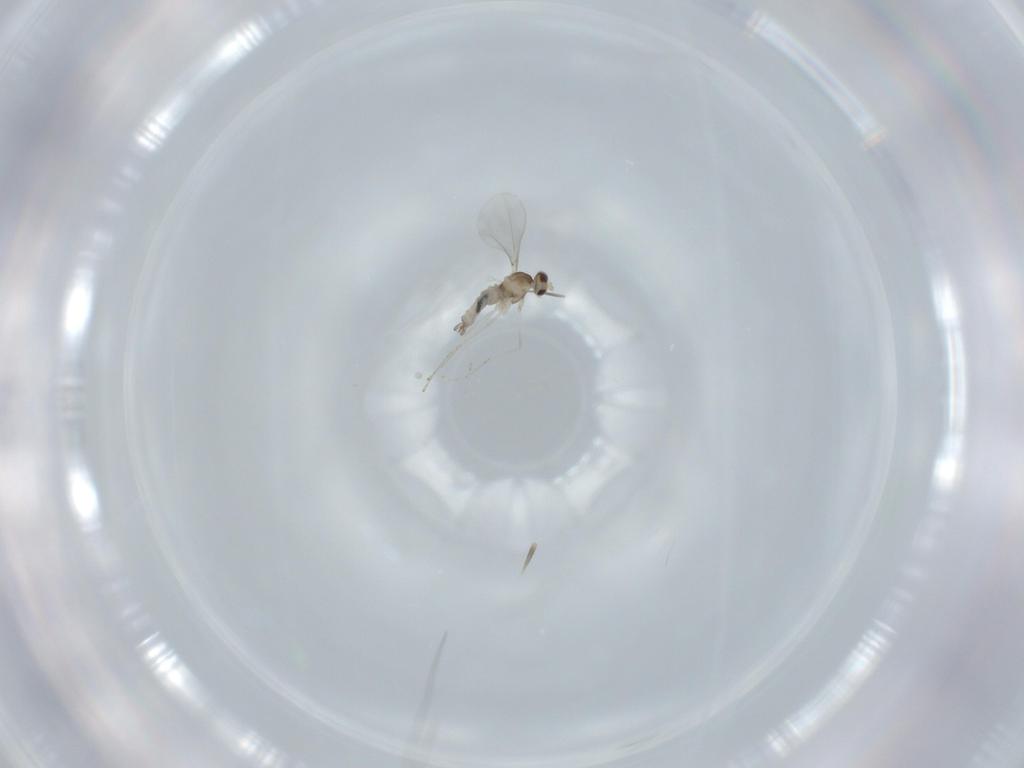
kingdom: Animalia
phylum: Arthropoda
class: Insecta
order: Diptera
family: Cecidomyiidae
